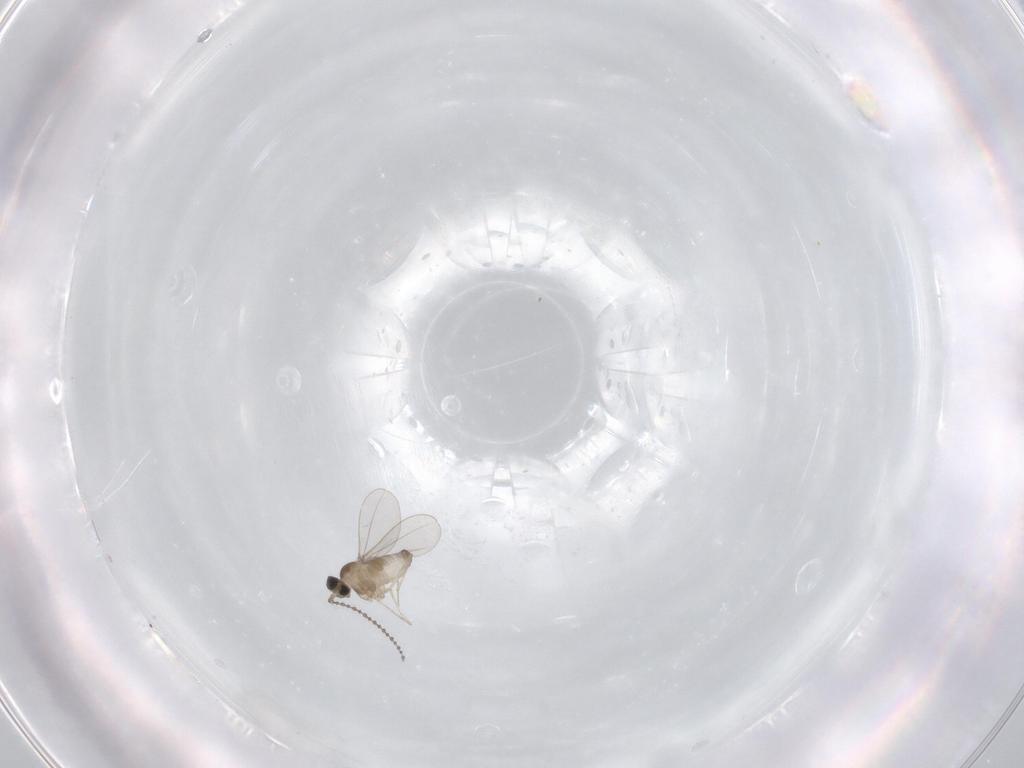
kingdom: Animalia
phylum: Arthropoda
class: Insecta
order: Diptera
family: Cecidomyiidae
